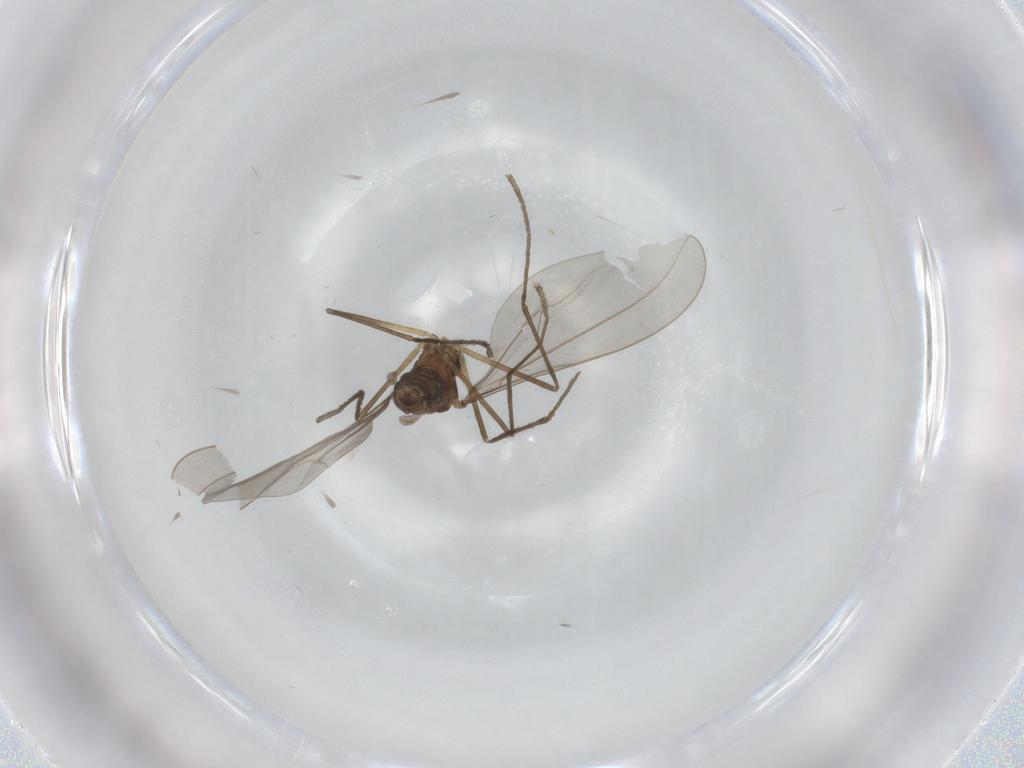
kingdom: Animalia
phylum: Arthropoda
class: Insecta
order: Diptera
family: Cecidomyiidae
